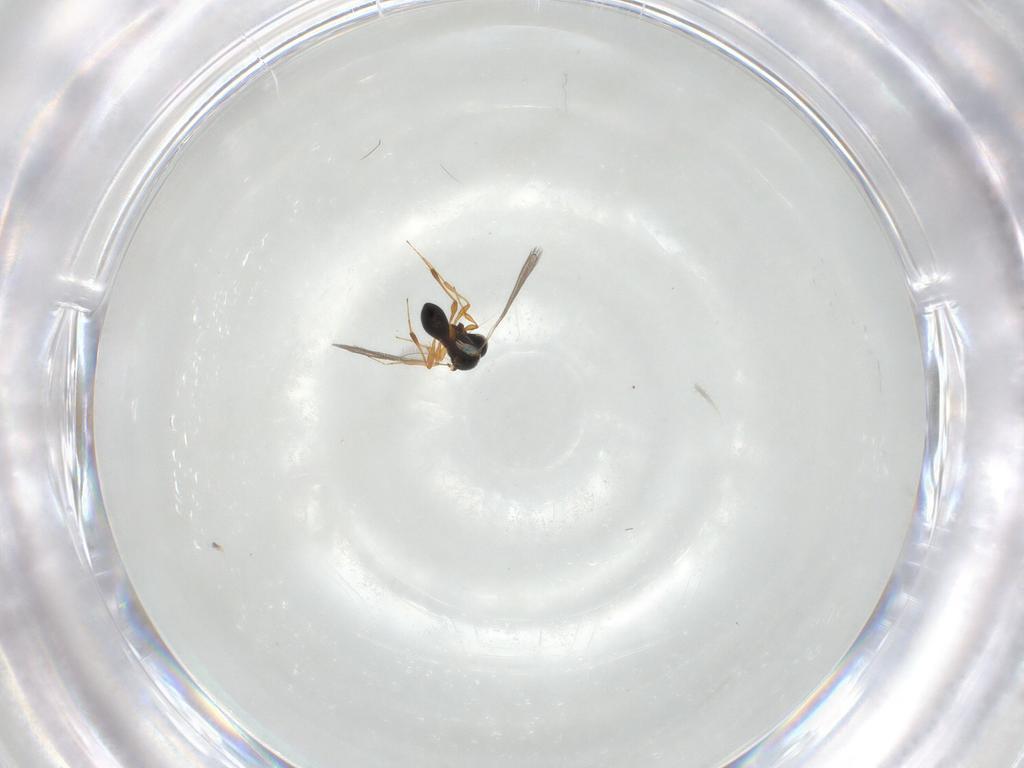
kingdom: Animalia
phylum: Arthropoda
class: Insecta
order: Hymenoptera
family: Platygastridae
